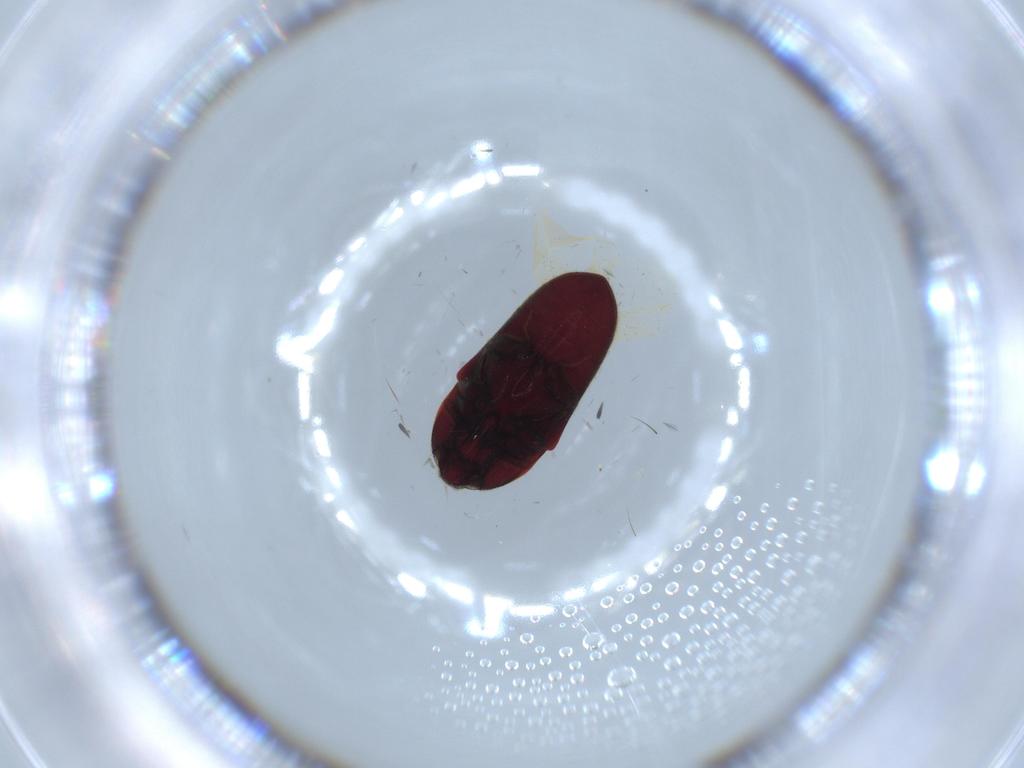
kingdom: Animalia
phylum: Arthropoda
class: Insecta
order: Coleoptera
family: Throscidae
